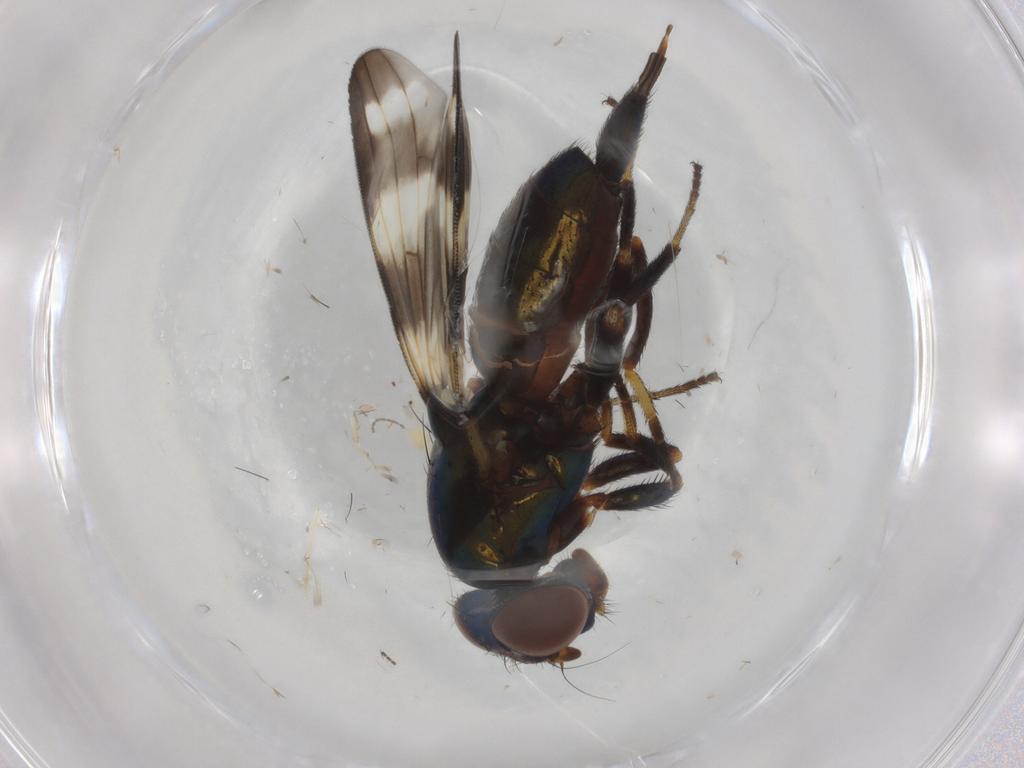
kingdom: Animalia
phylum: Arthropoda
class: Insecta
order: Diptera
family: Ulidiidae
